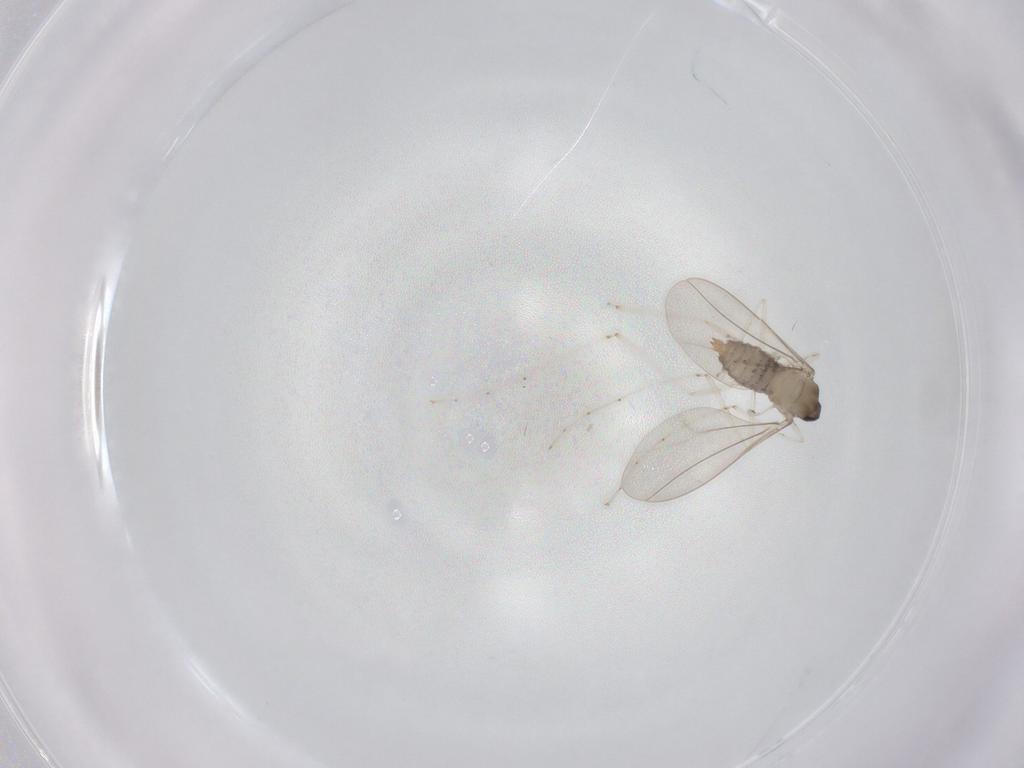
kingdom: Animalia
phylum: Arthropoda
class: Insecta
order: Diptera
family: Cecidomyiidae
